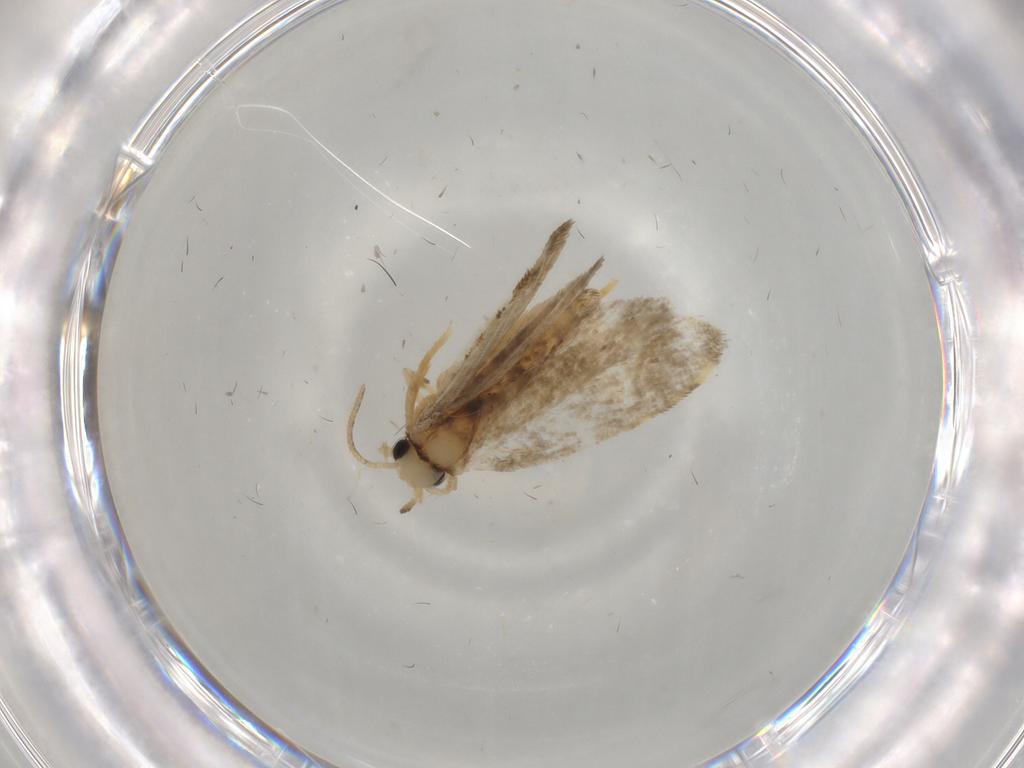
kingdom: Animalia
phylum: Arthropoda
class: Insecta
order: Lepidoptera
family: Psychidae
